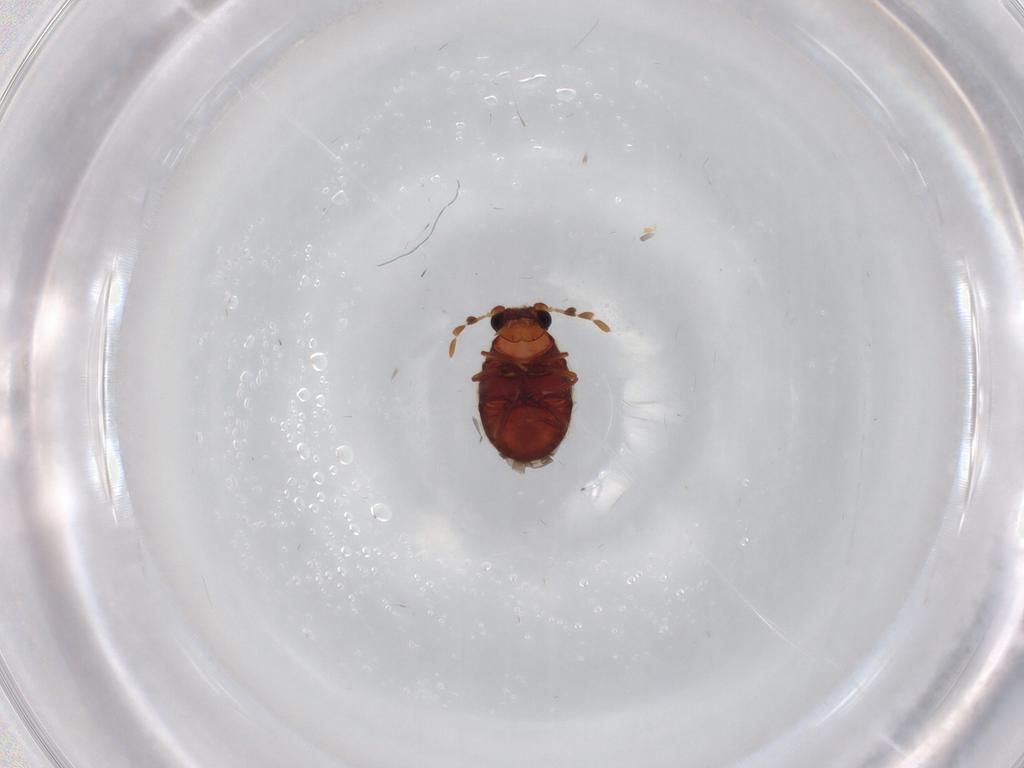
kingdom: Animalia
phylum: Arthropoda
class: Insecta
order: Coleoptera
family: Ptinidae
